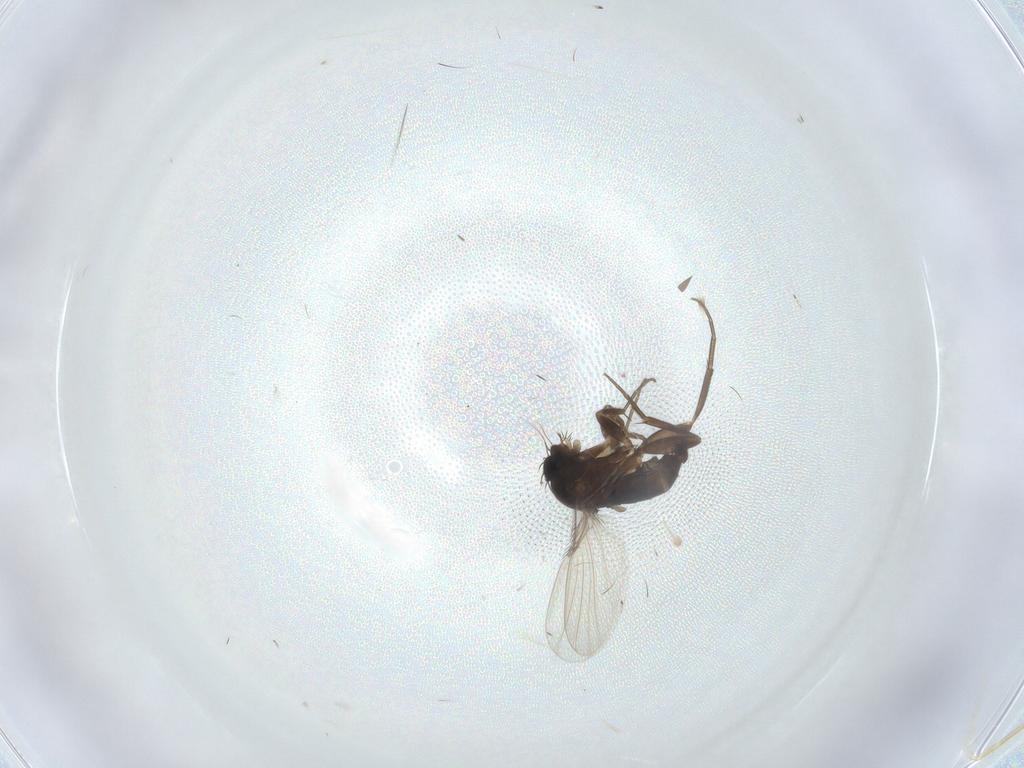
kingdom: Animalia
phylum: Arthropoda
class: Insecta
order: Diptera
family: Phoridae
